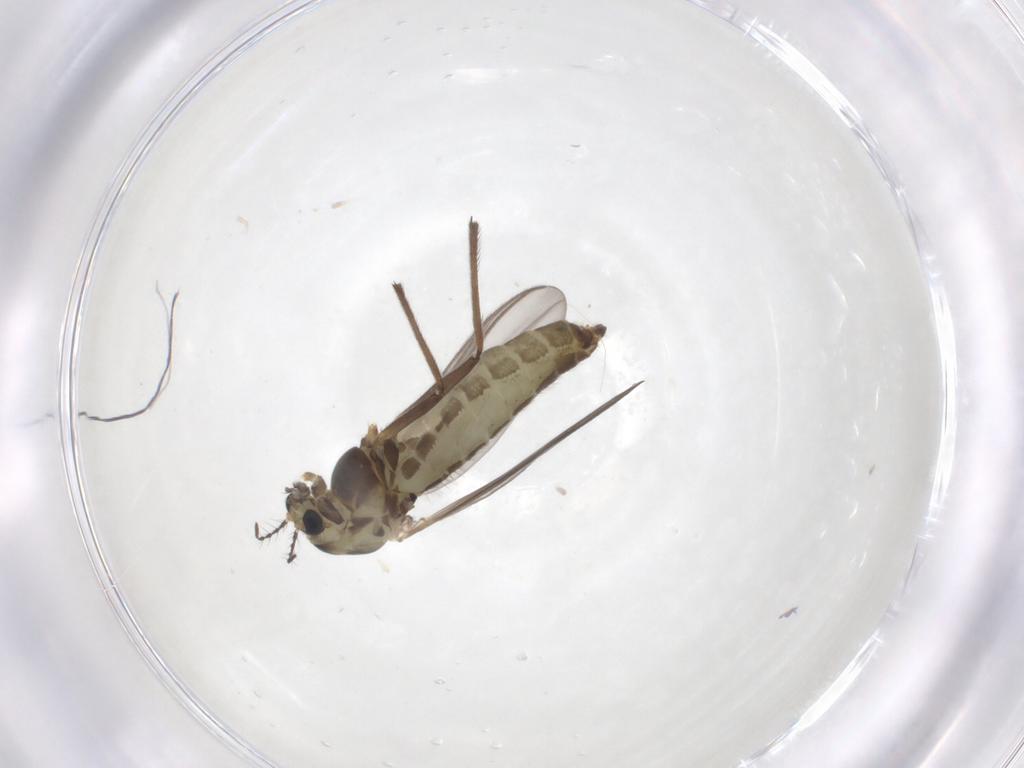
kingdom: Animalia
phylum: Arthropoda
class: Insecta
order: Diptera
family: Chironomidae
